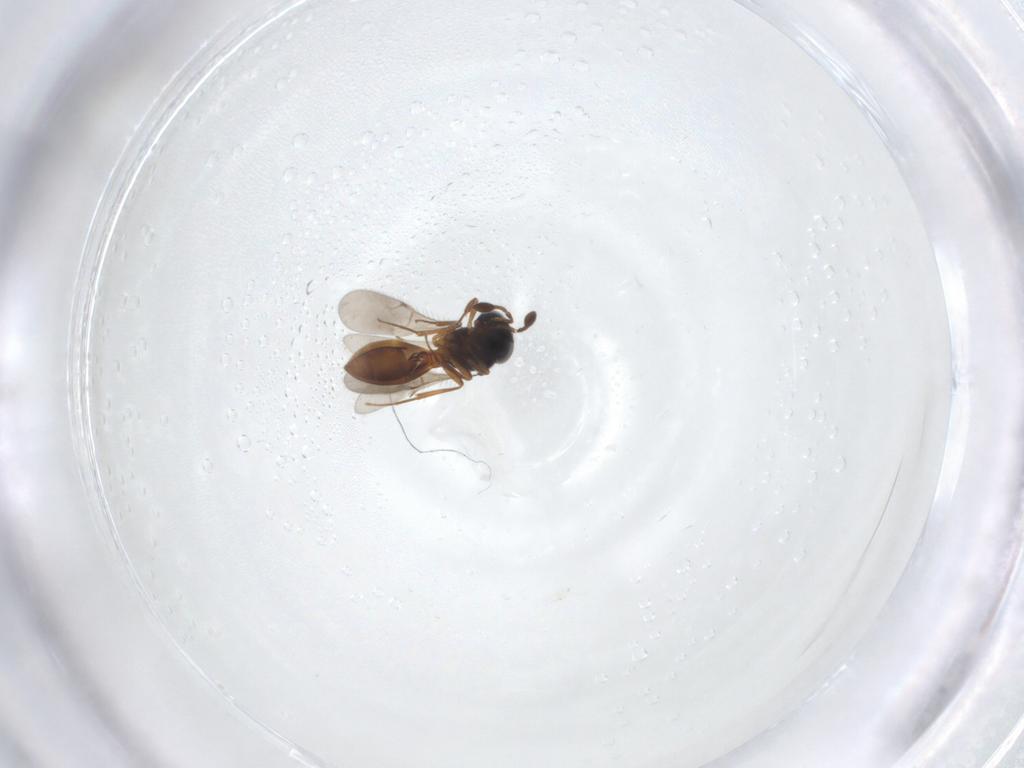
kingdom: Animalia
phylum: Arthropoda
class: Insecta
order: Hymenoptera
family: Scelionidae
